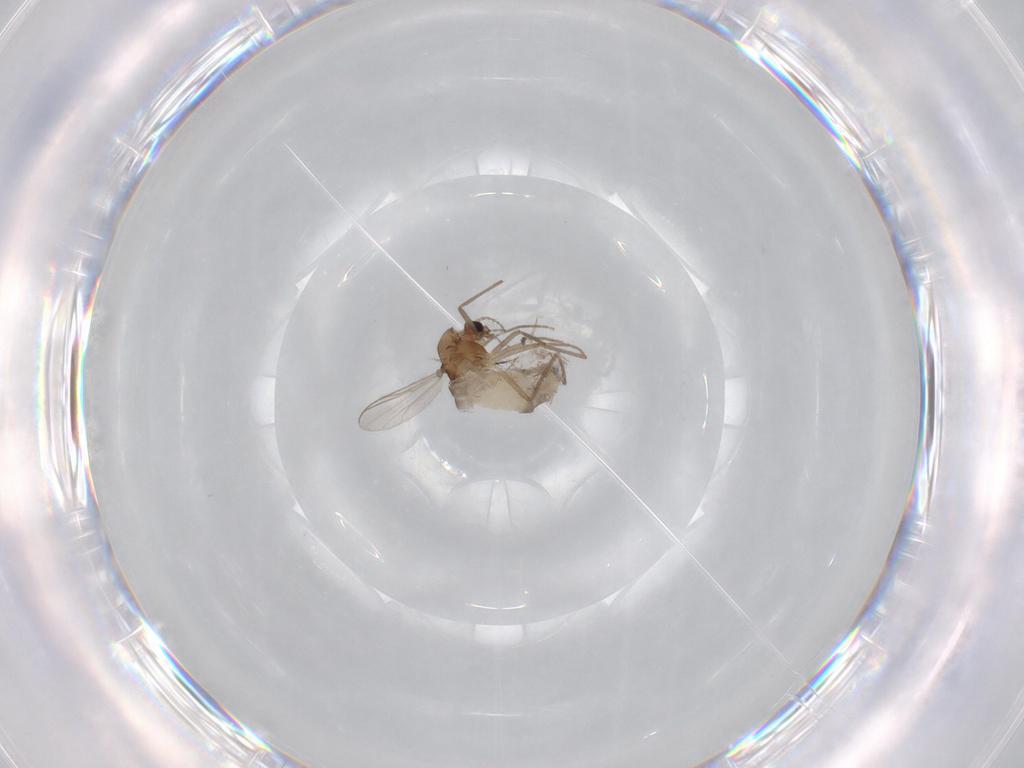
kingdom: Animalia
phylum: Arthropoda
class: Insecta
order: Diptera
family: Chironomidae
